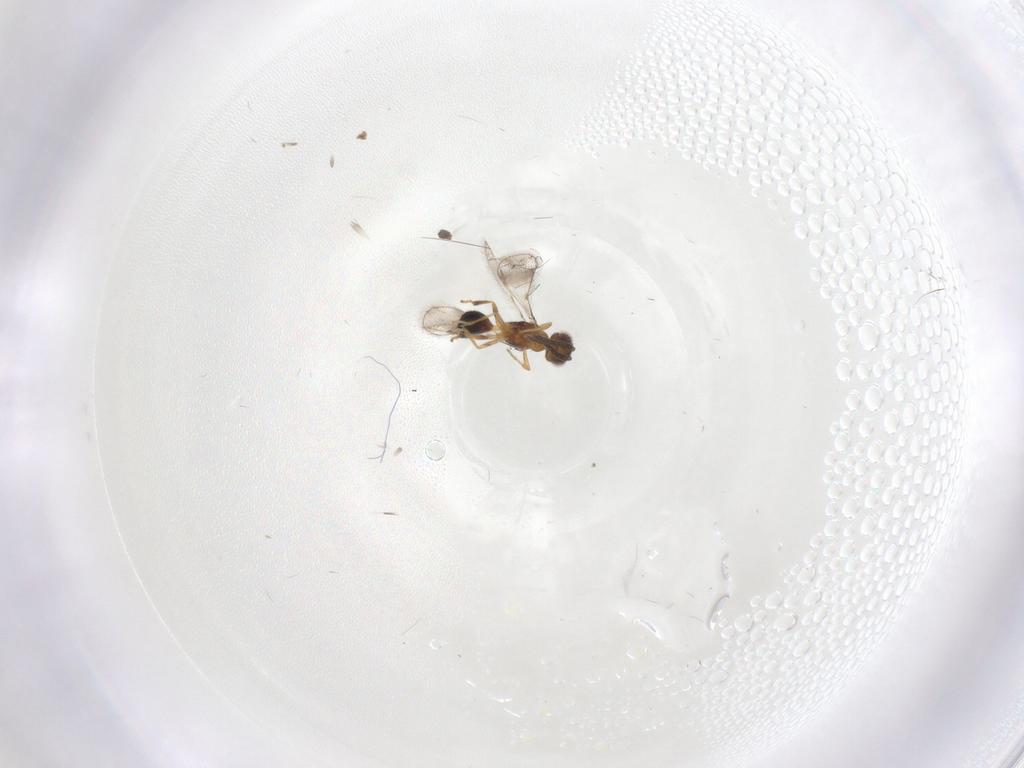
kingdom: Animalia
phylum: Arthropoda
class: Insecta
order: Hymenoptera
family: Pteromalidae
